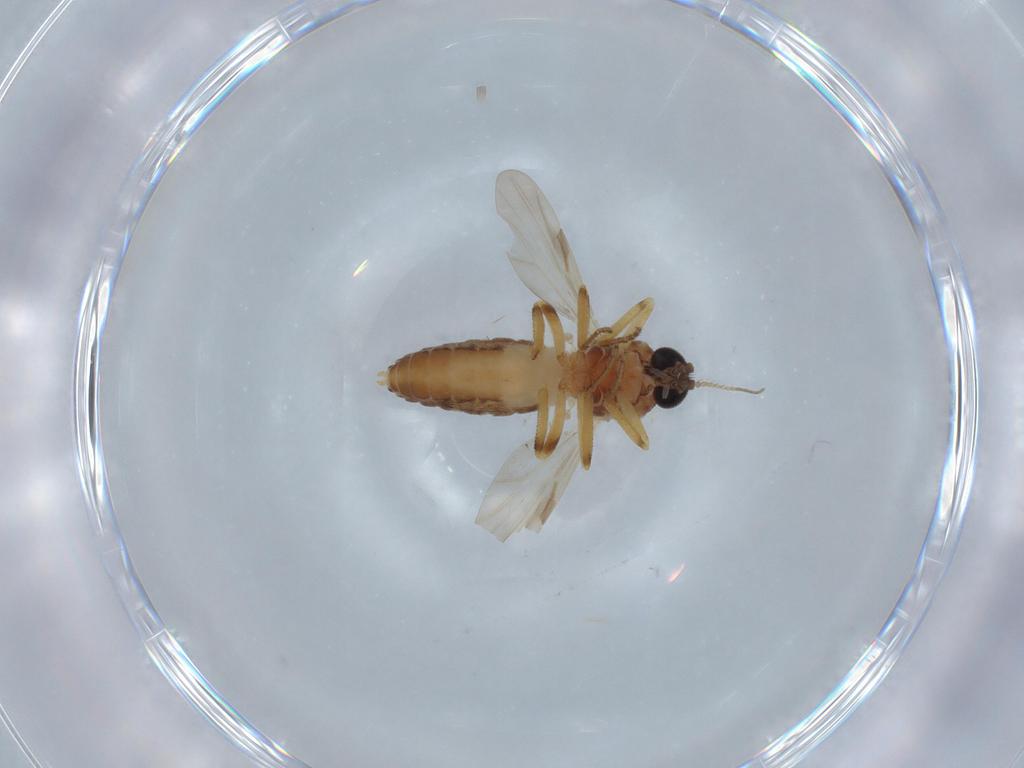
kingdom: Animalia
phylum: Arthropoda
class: Insecta
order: Diptera
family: Ceratopogonidae
